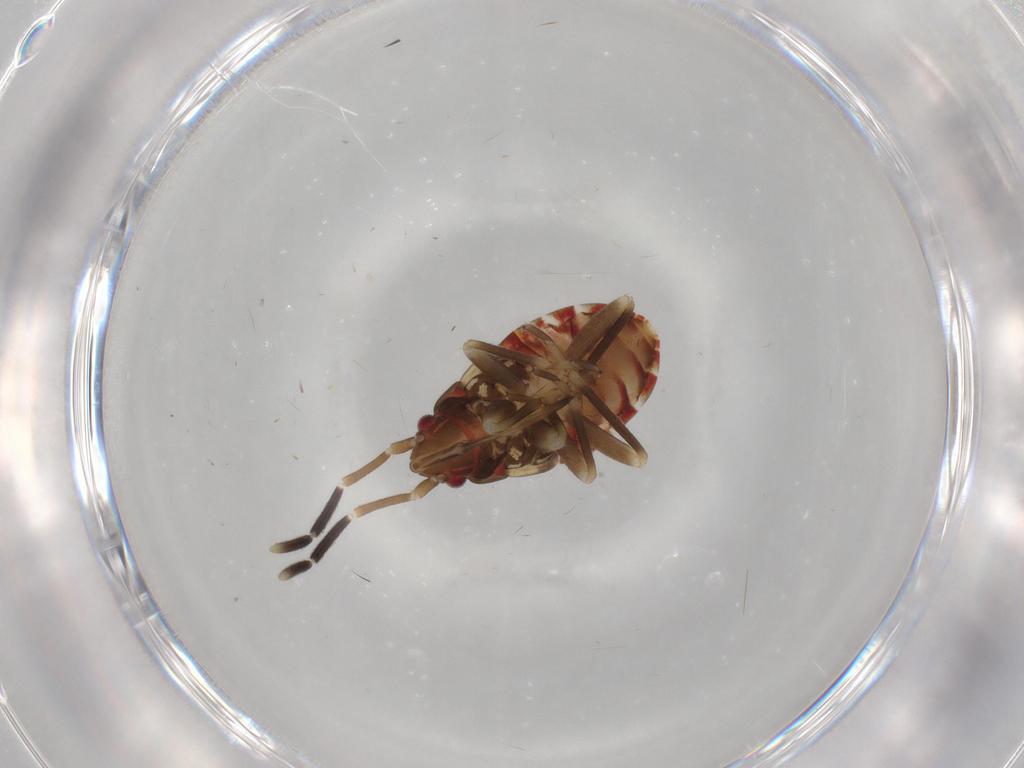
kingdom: Animalia
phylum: Arthropoda
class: Insecta
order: Hemiptera
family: Rhyparochromidae
